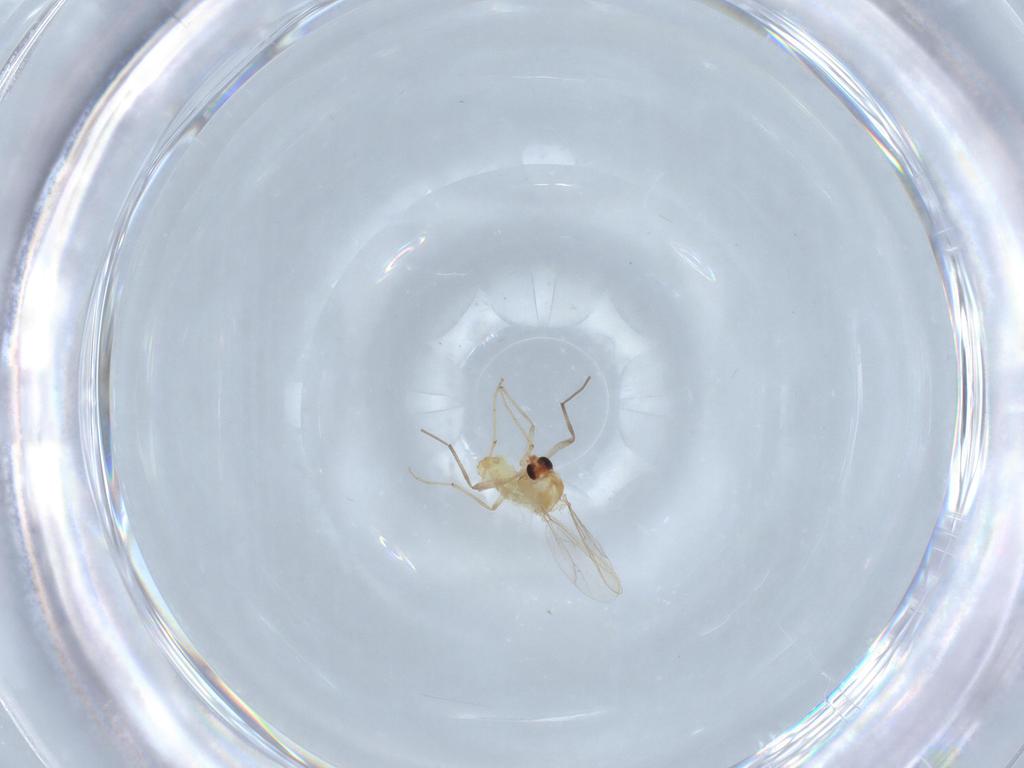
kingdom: Animalia
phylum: Arthropoda
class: Insecta
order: Diptera
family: Chironomidae
